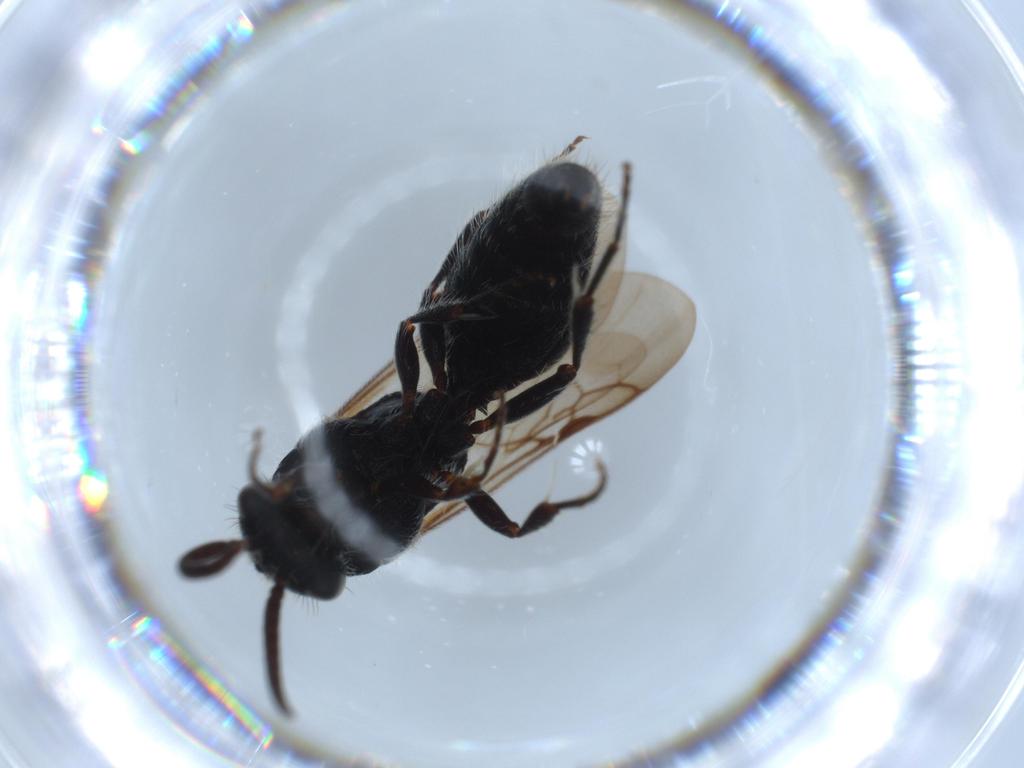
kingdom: Animalia
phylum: Arthropoda
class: Insecta
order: Hymenoptera
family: Mutillidae
